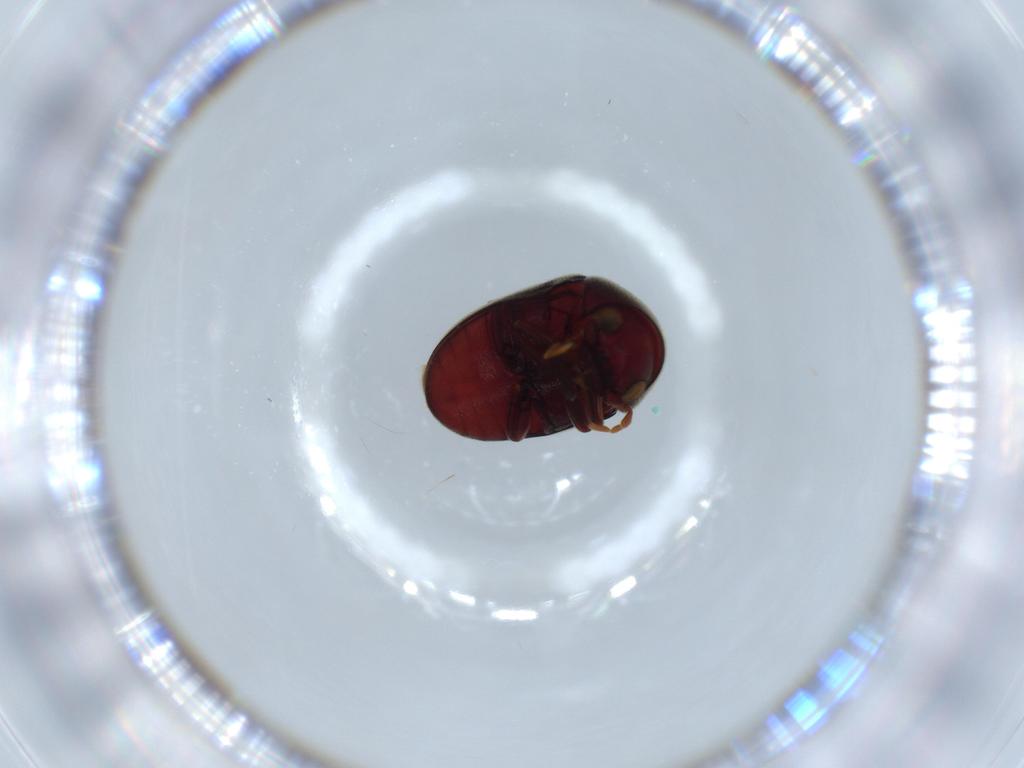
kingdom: Animalia
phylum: Arthropoda
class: Insecta
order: Coleoptera
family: Ptinidae
